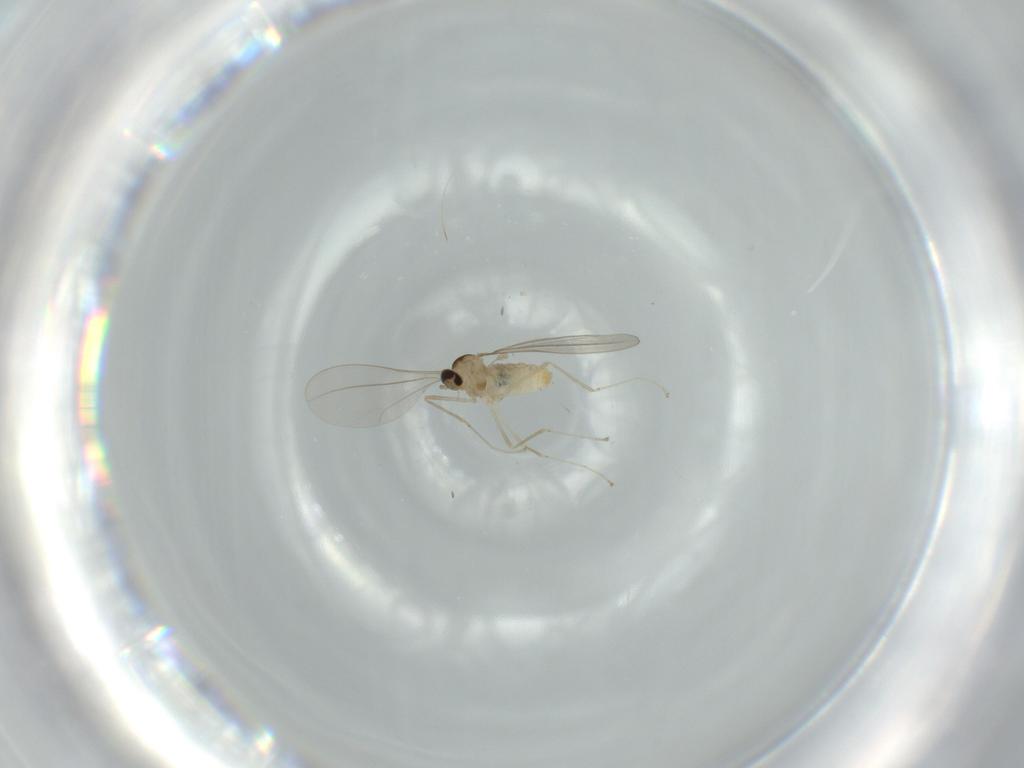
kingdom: Animalia
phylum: Arthropoda
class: Insecta
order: Diptera
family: Cecidomyiidae
